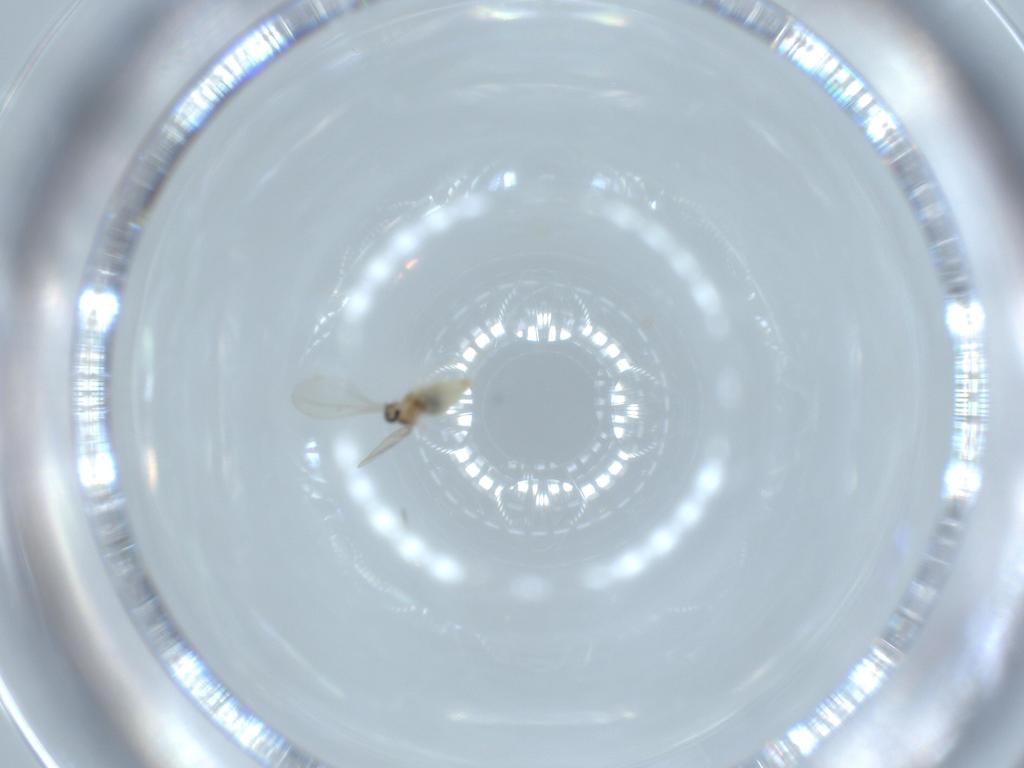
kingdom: Animalia
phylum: Arthropoda
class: Insecta
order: Diptera
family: Cecidomyiidae
